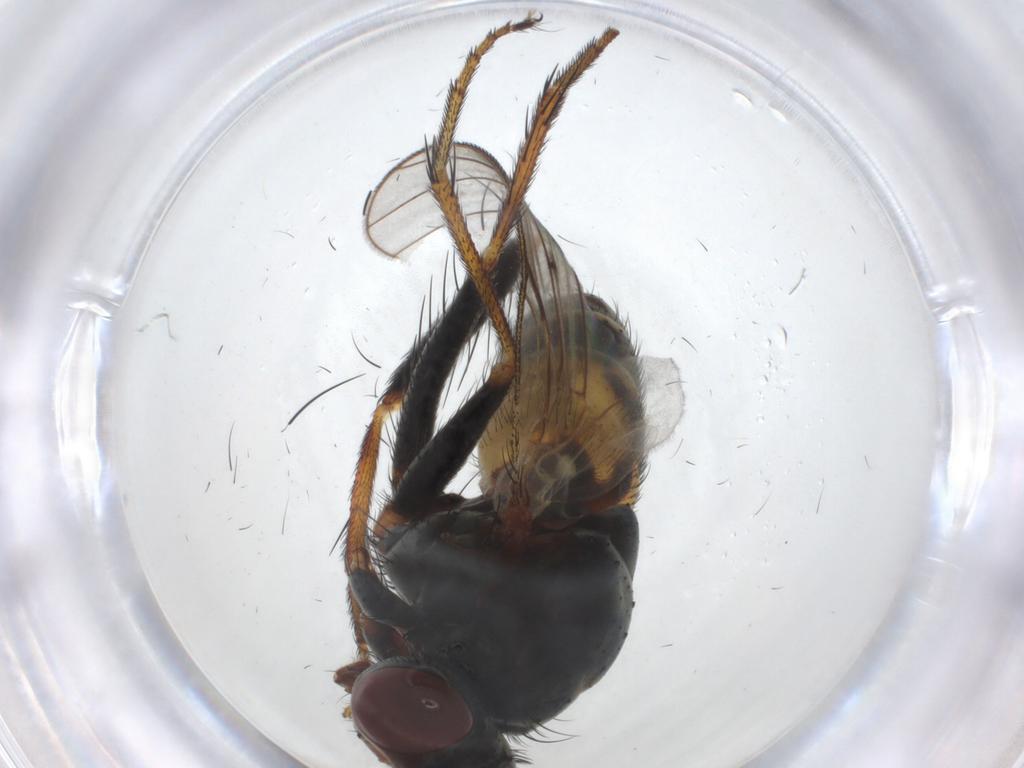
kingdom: Animalia
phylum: Arthropoda
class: Insecta
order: Diptera
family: Muscidae
